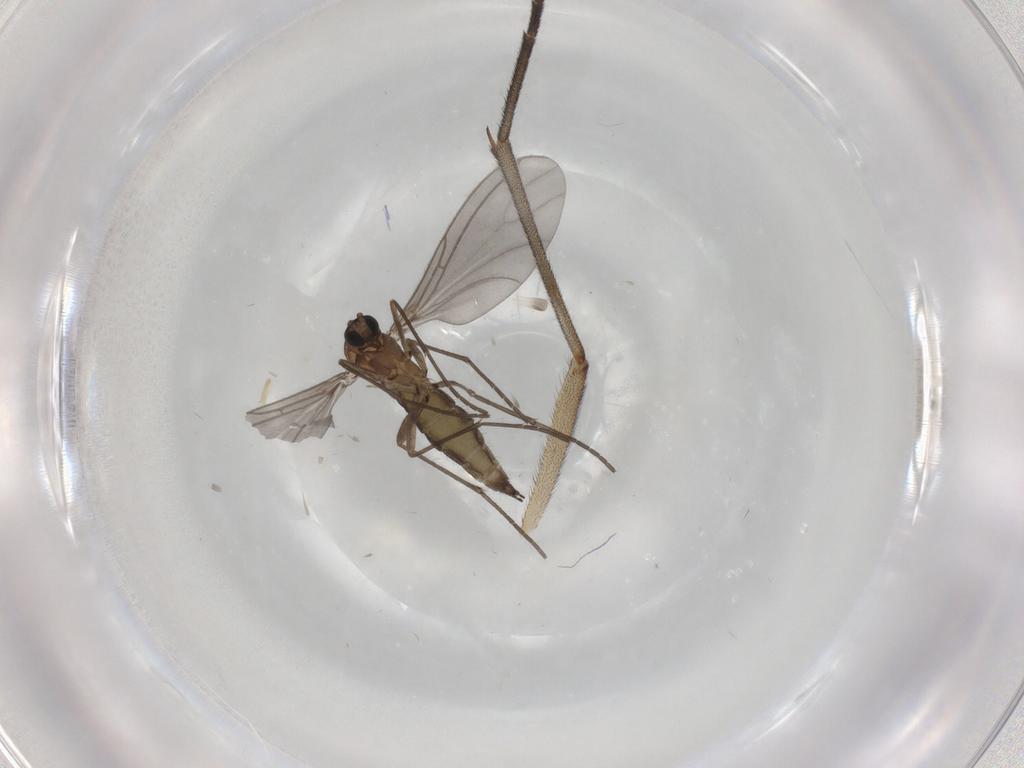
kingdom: Animalia
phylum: Arthropoda
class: Insecta
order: Diptera
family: Sciaridae
